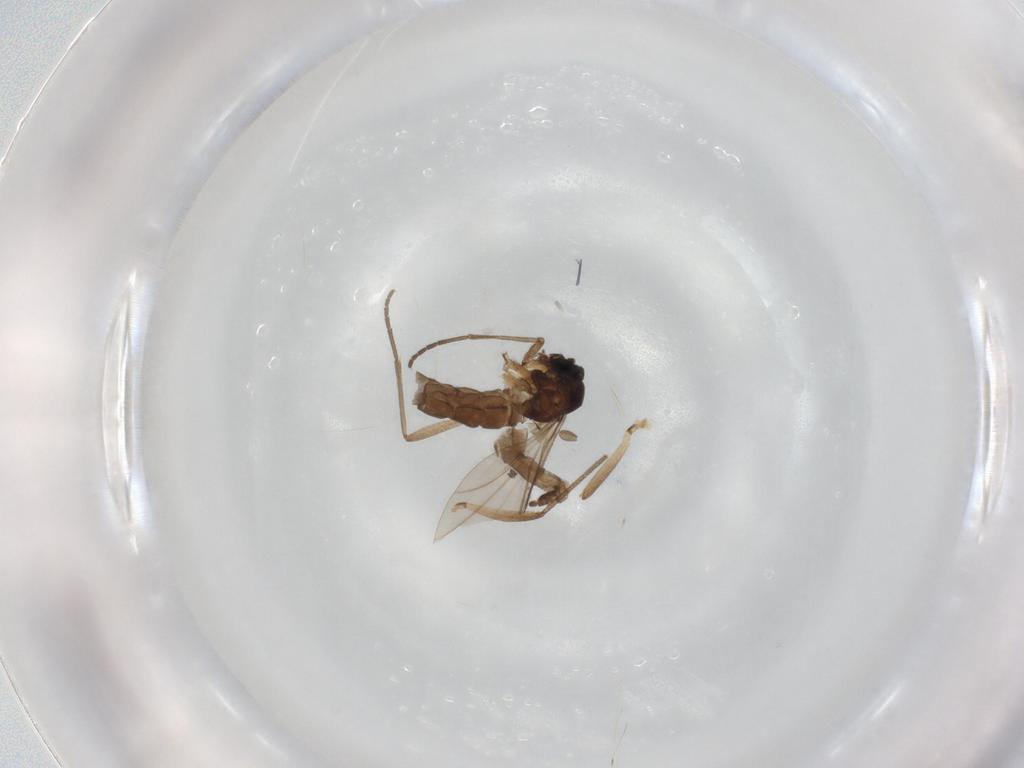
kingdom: Animalia
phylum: Arthropoda
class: Insecta
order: Diptera
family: Sciaridae
